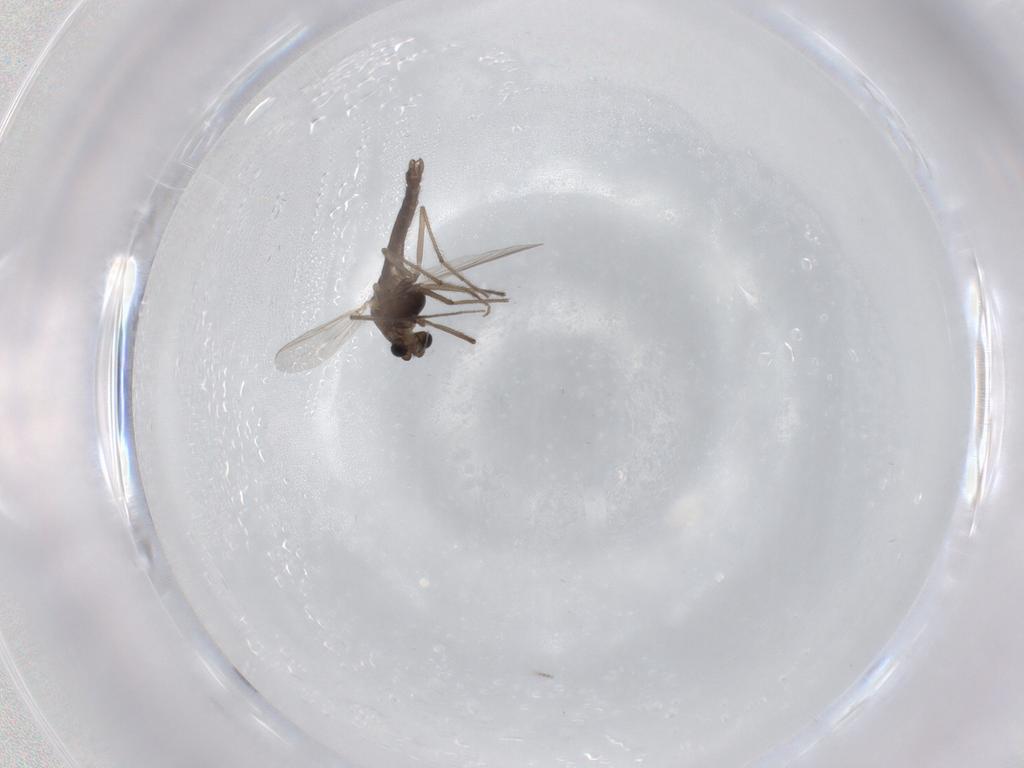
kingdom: Animalia
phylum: Arthropoda
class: Insecta
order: Diptera
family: Chironomidae
